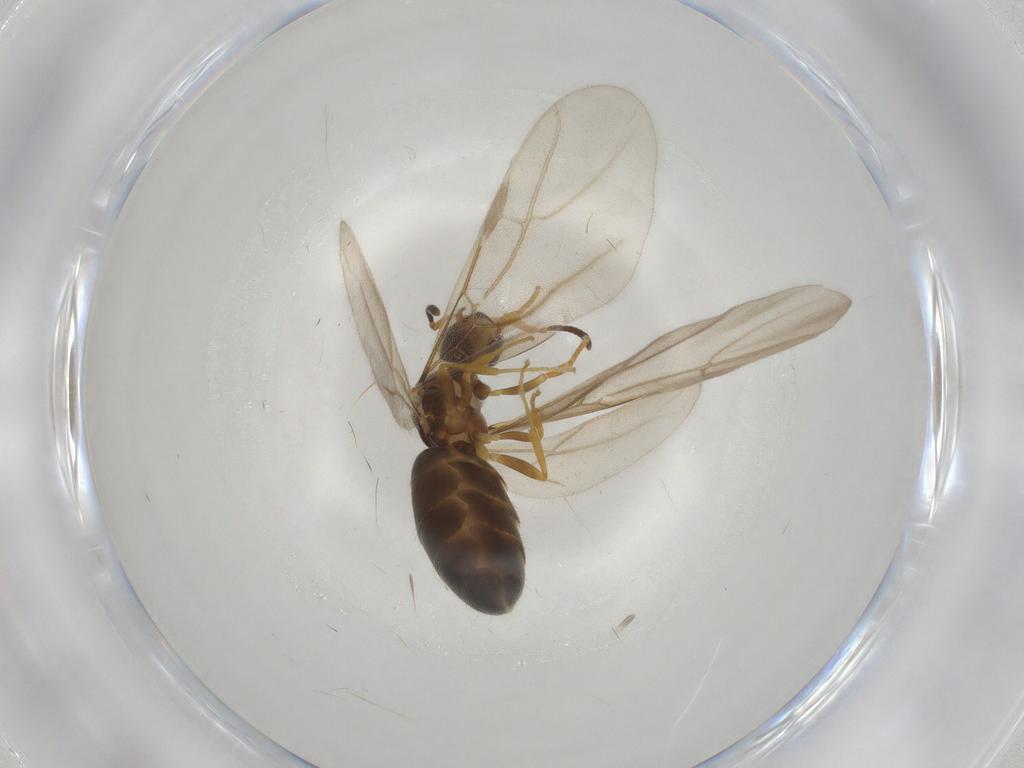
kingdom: Animalia
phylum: Arthropoda
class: Insecta
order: Hymenoptera
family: Formicidae
